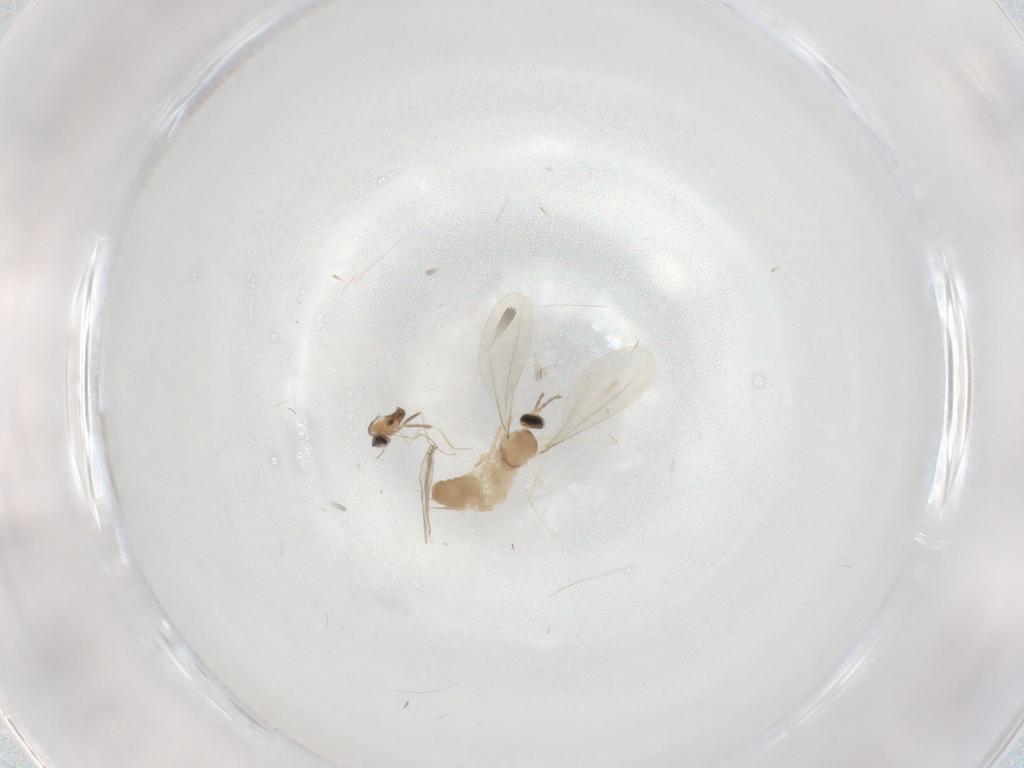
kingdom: Animalia
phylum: Arthropoda
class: Insecta
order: Diptera
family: Cecidomyiidae
